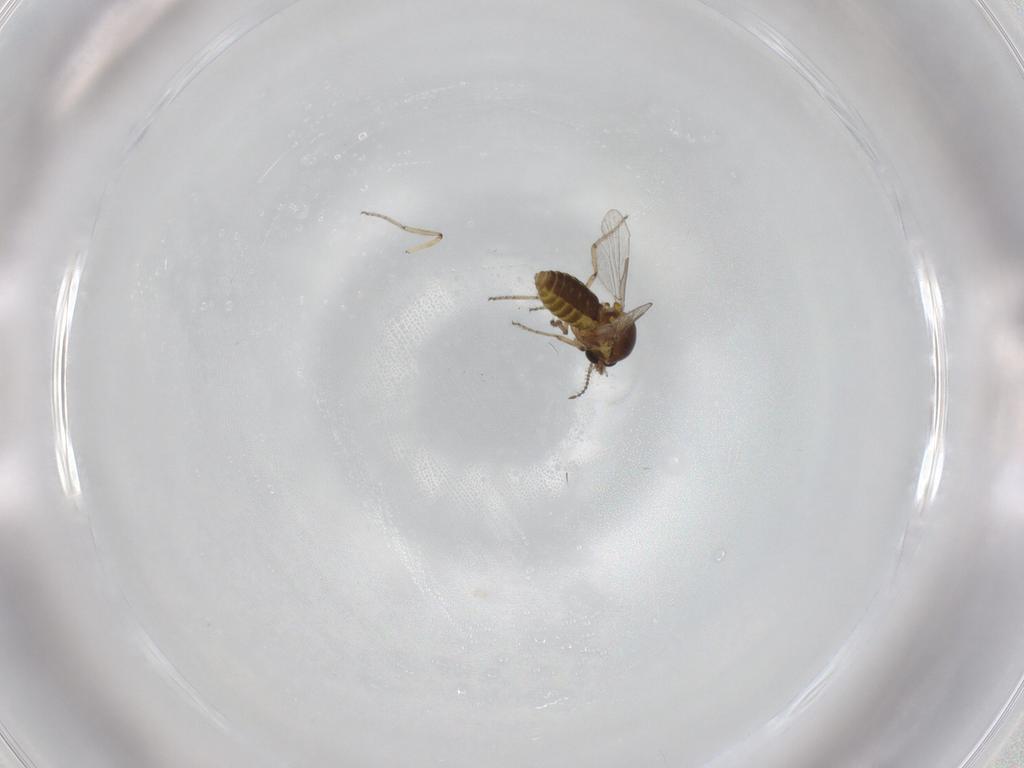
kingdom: Animalia
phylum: Arthropoda
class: Insecta
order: Diptera
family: Ceratopogonidae
